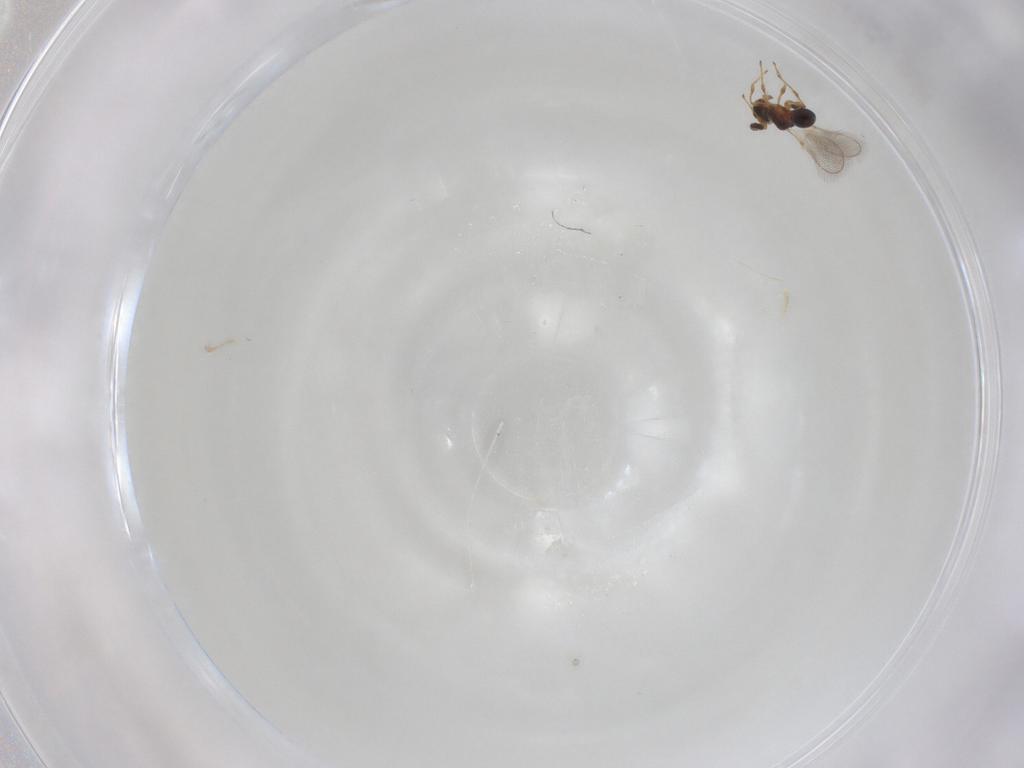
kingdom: Animalia
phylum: Arthropoda
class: Insecta
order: Hymenoptera
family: Diapriidae
